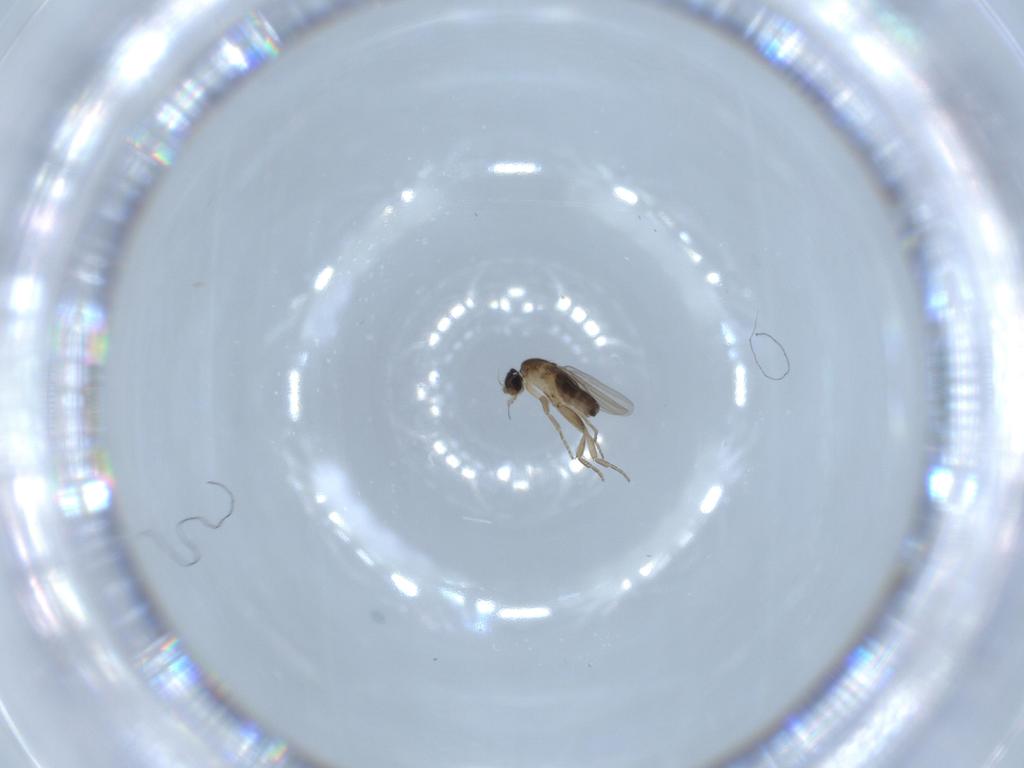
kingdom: Animalia
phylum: Arthropoda
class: Insecta
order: Diptera
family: Phoridae
